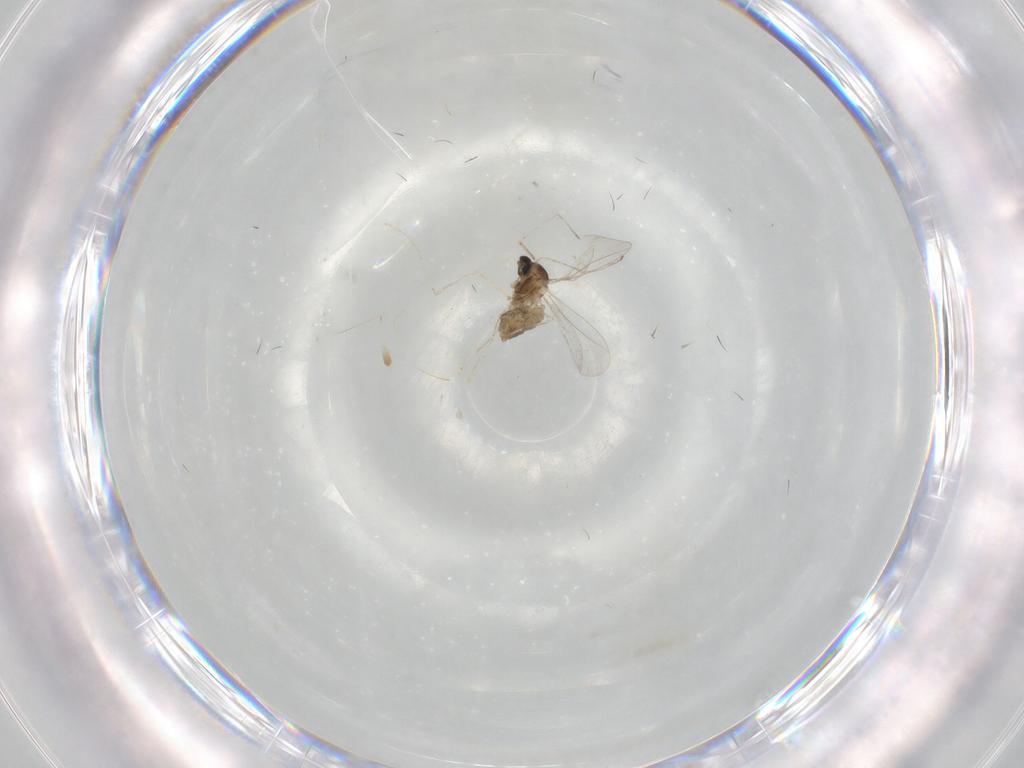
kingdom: Animalia
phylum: Arthropoda
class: Insecta
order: Diptera
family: Cecidomyiidae
